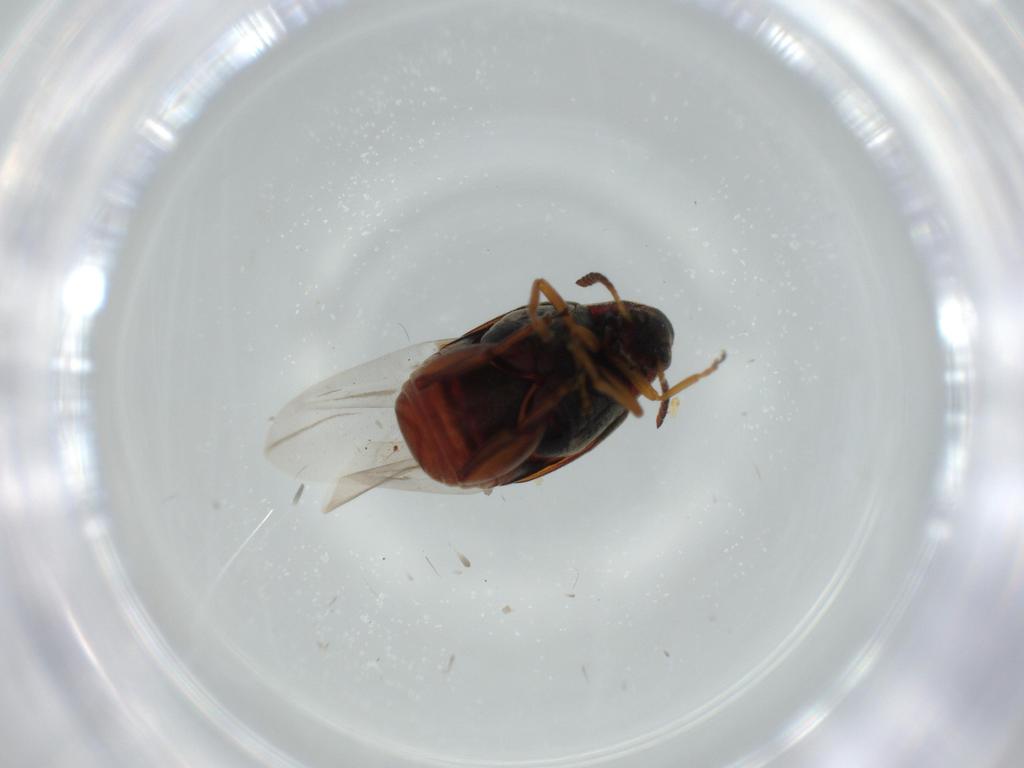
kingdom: Animalia
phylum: Arthropoda
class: Insecta
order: Coleoptera
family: Chrysomelidae
